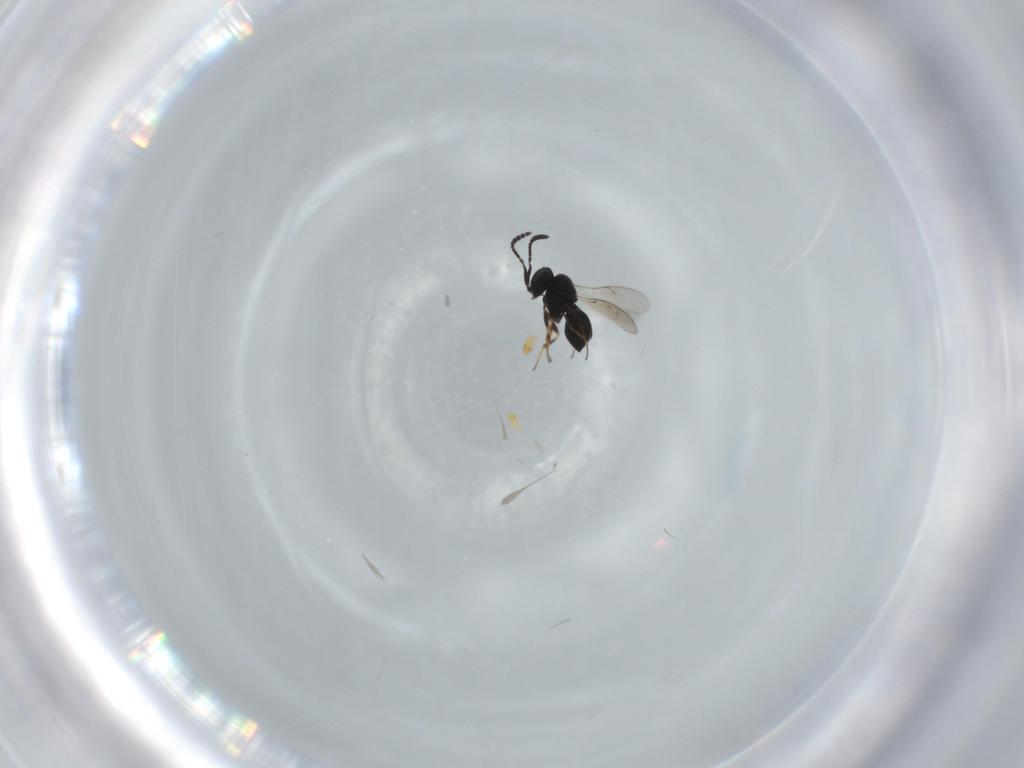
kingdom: Animalia
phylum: Arthropoda
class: Insecta
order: Hymenoptera
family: Scelionidae
